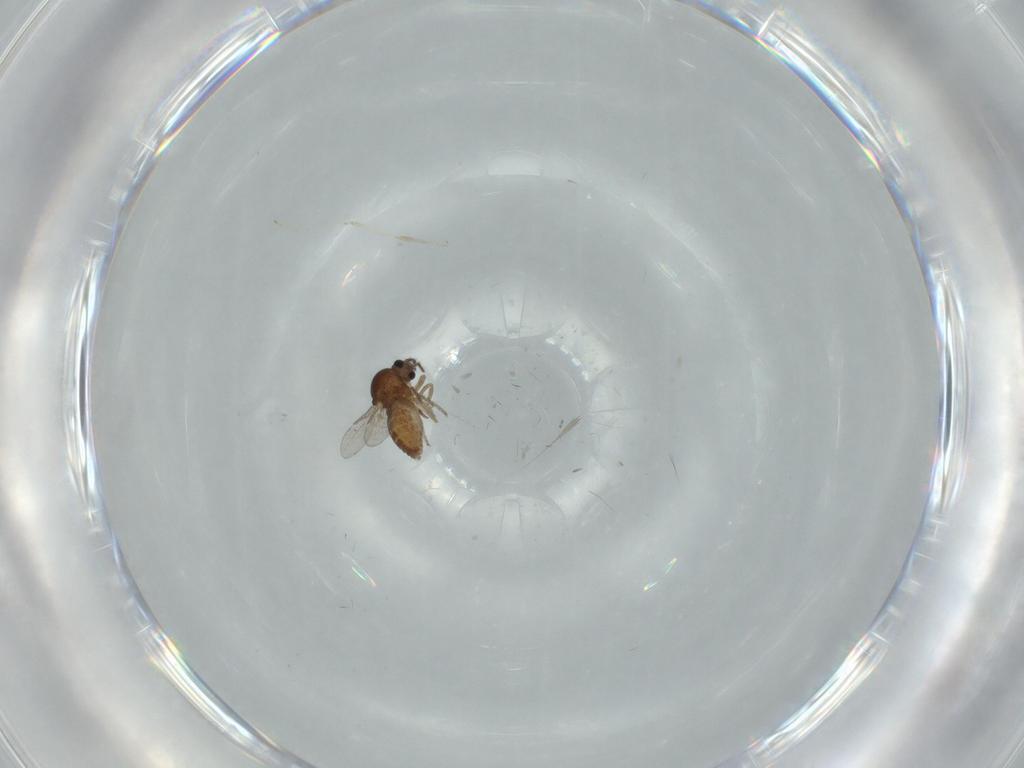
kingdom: Animalia
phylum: Arthropoda
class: Insecta
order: Diptera
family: Ceratopogonidae
